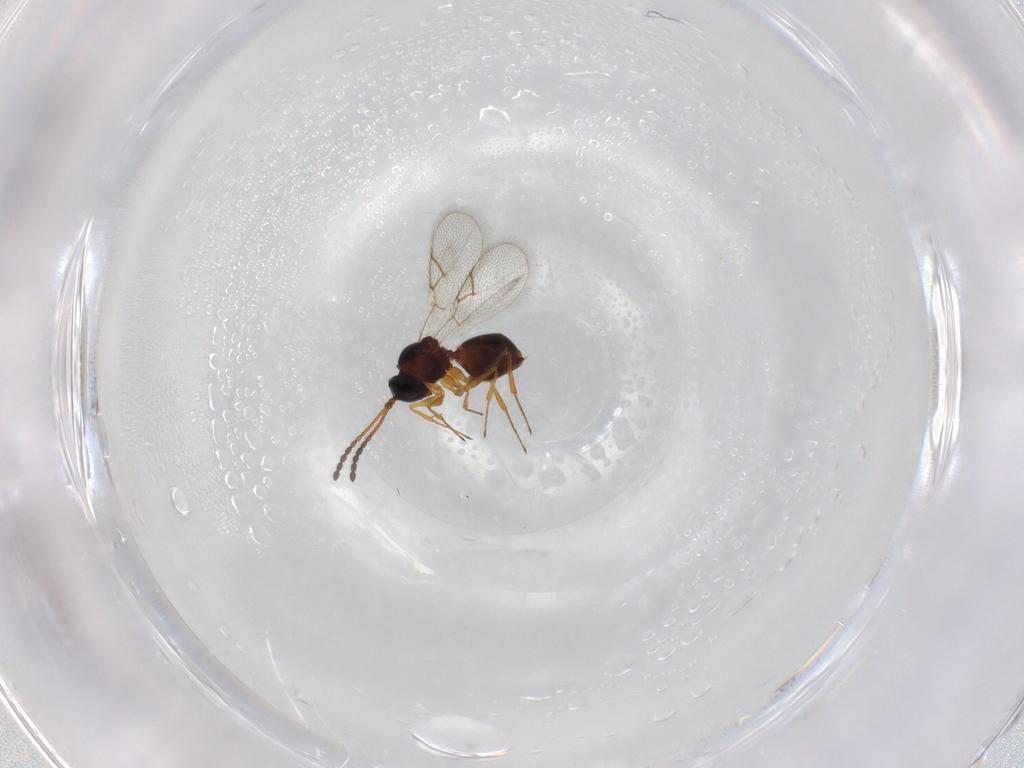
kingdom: Animalia
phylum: Arthropoda
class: Insecta
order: Hymenoptera
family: Figitidae
